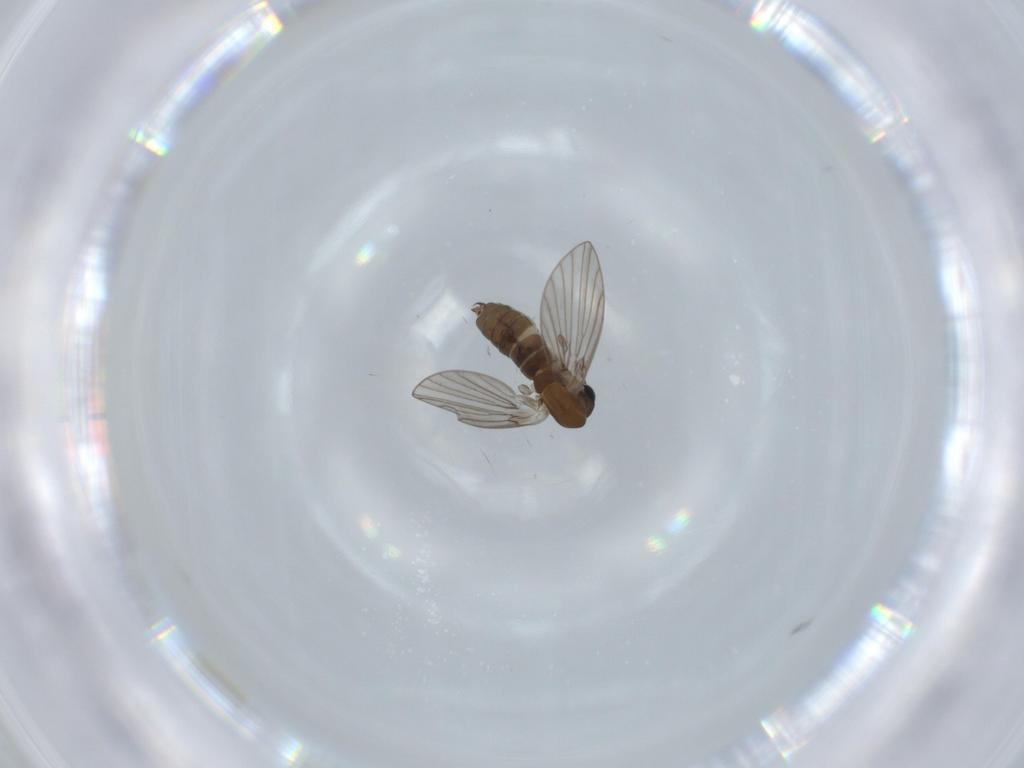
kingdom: Animalia
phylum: Arthropoda
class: Insecta
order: Diptera
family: Psychodidae
